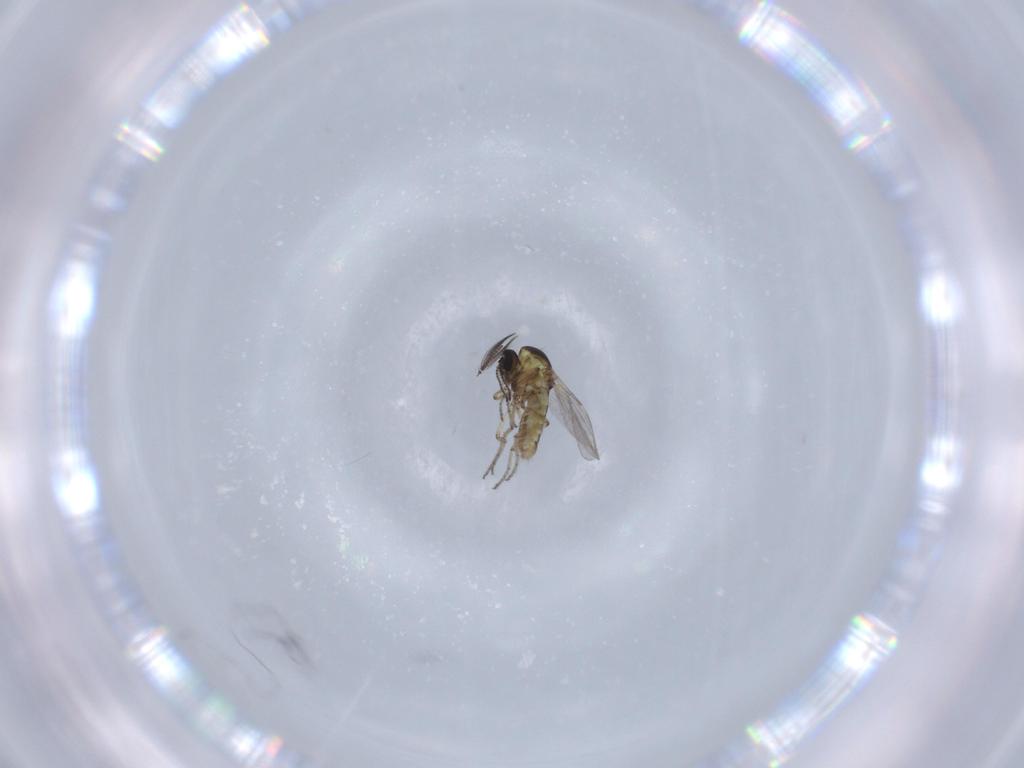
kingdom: Animalia
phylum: Arthropoda
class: Insecta
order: Diptera
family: Ceratopogonidae
